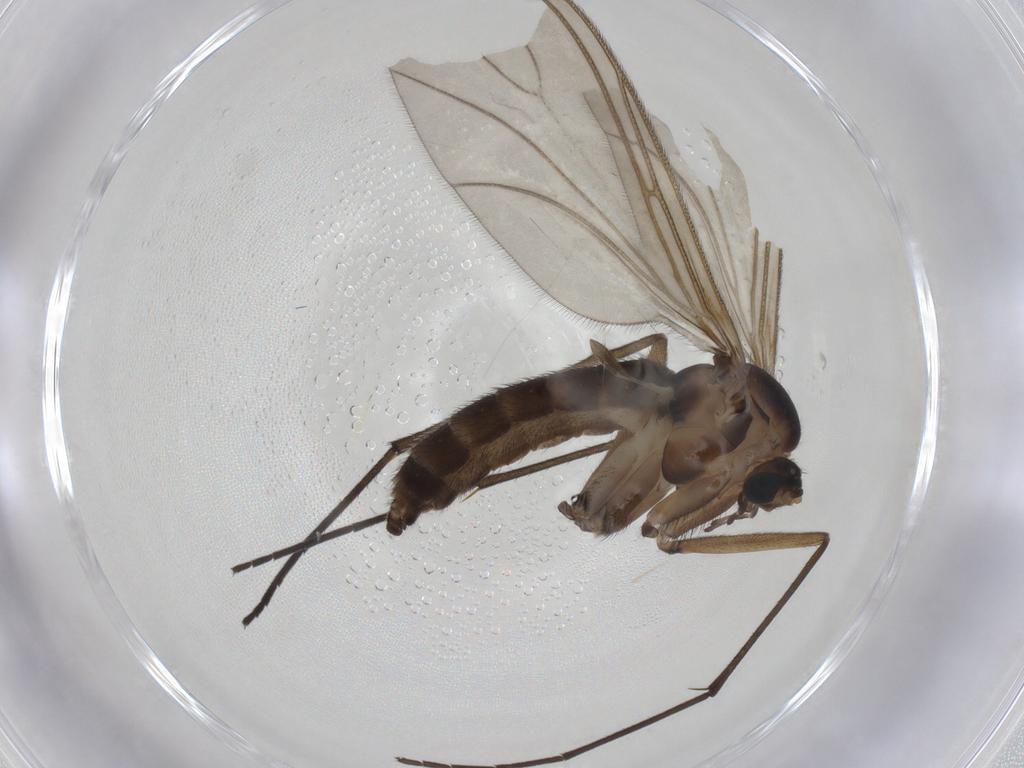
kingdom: Animalia
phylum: Arthropoda
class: Insecta
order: Diptera
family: Sciaridae
